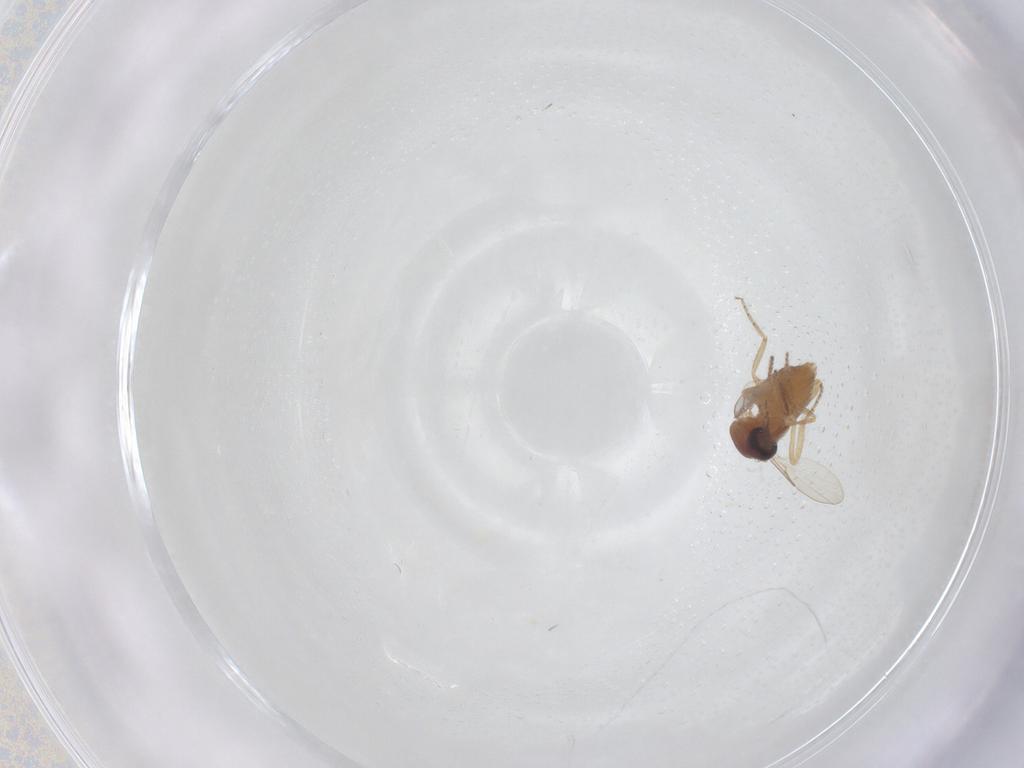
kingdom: Animalia
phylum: Arthropoda
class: Insecta
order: Diptera
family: Ceratopogonidae
